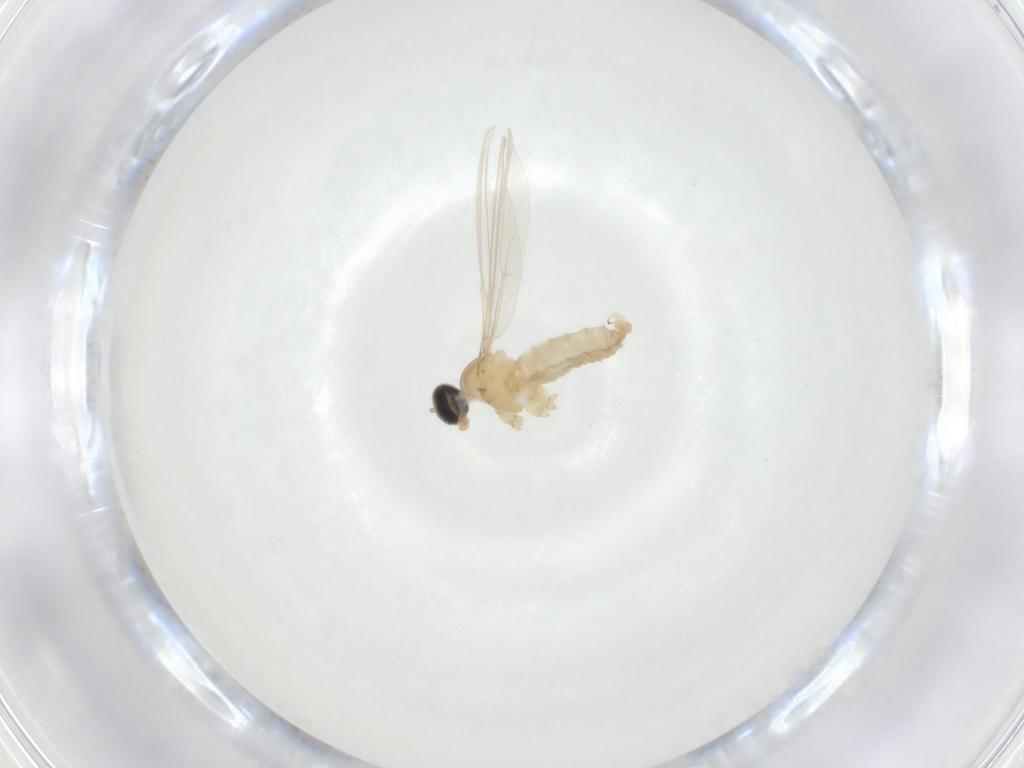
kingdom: Animalia
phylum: Arthropoda
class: Insecta
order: Diptera
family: Cecidomyiidae
